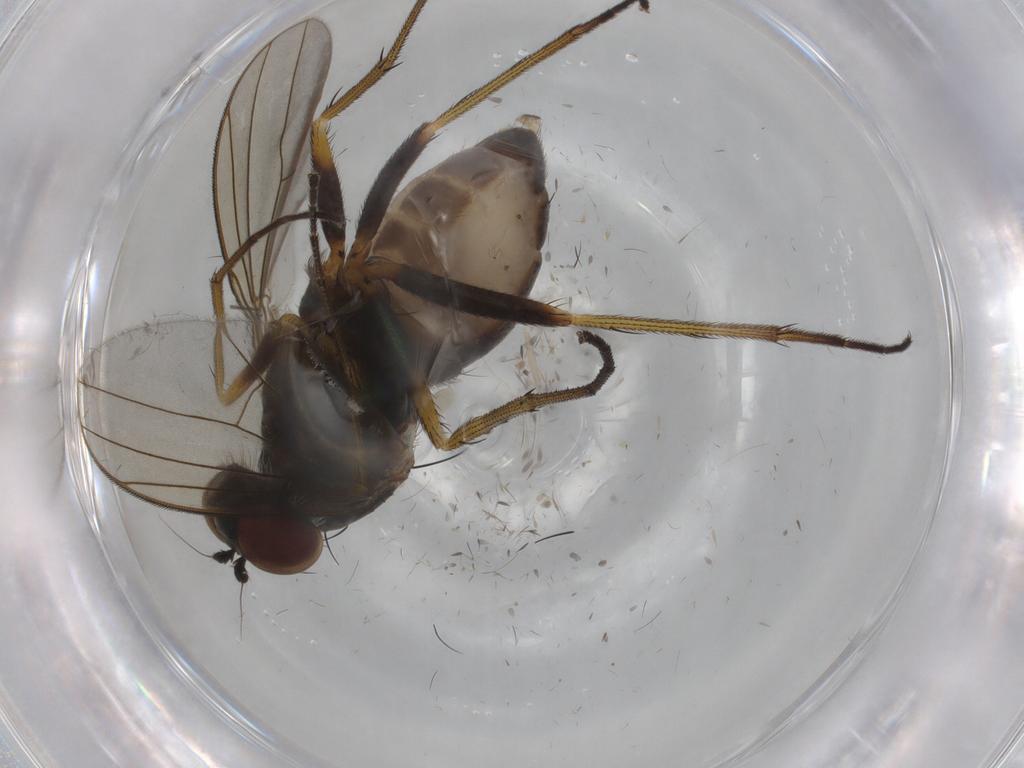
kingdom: Animalia
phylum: Arthropoda
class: Insecta
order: Diptera
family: Dolichopodidae
